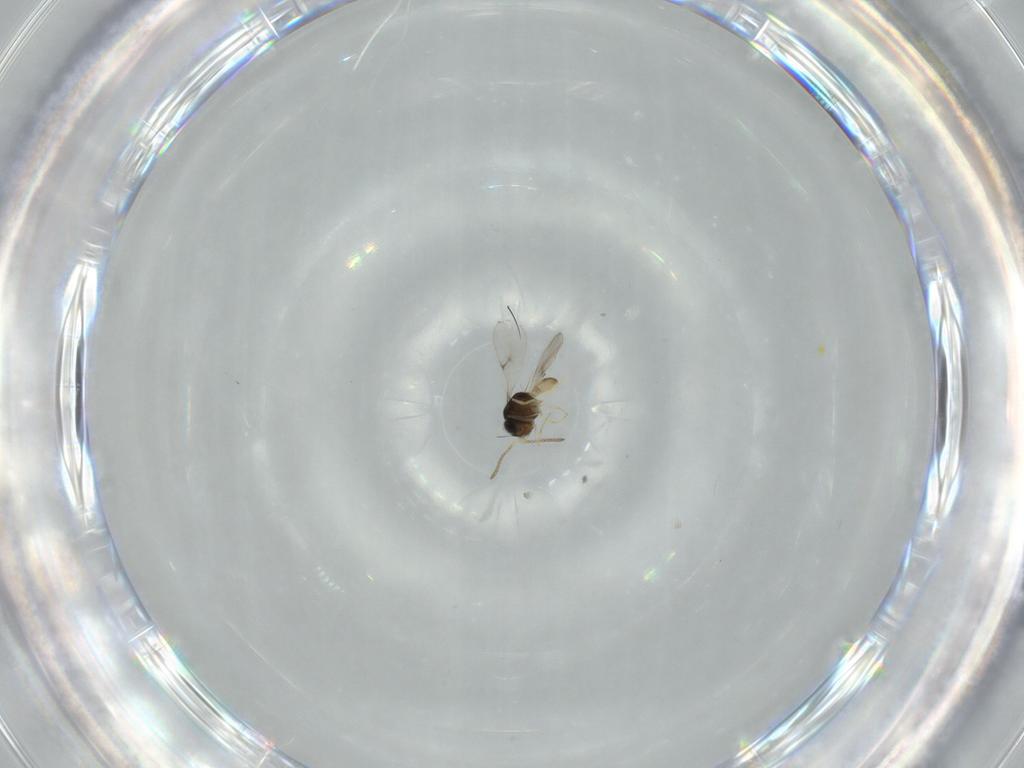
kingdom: Animalia
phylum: Arthropoda
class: Insecta
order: Hymenoptera
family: Scelionidae
